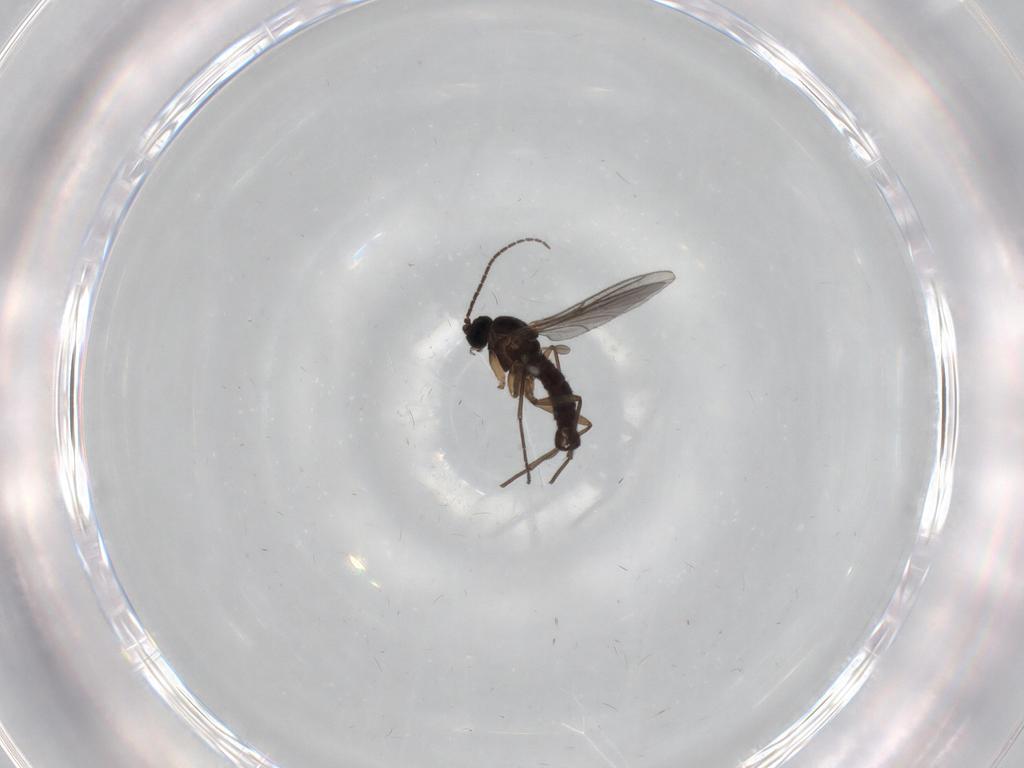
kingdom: Animalia
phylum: Arthropoda
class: Insecta
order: Diptera
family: Sciaridae
